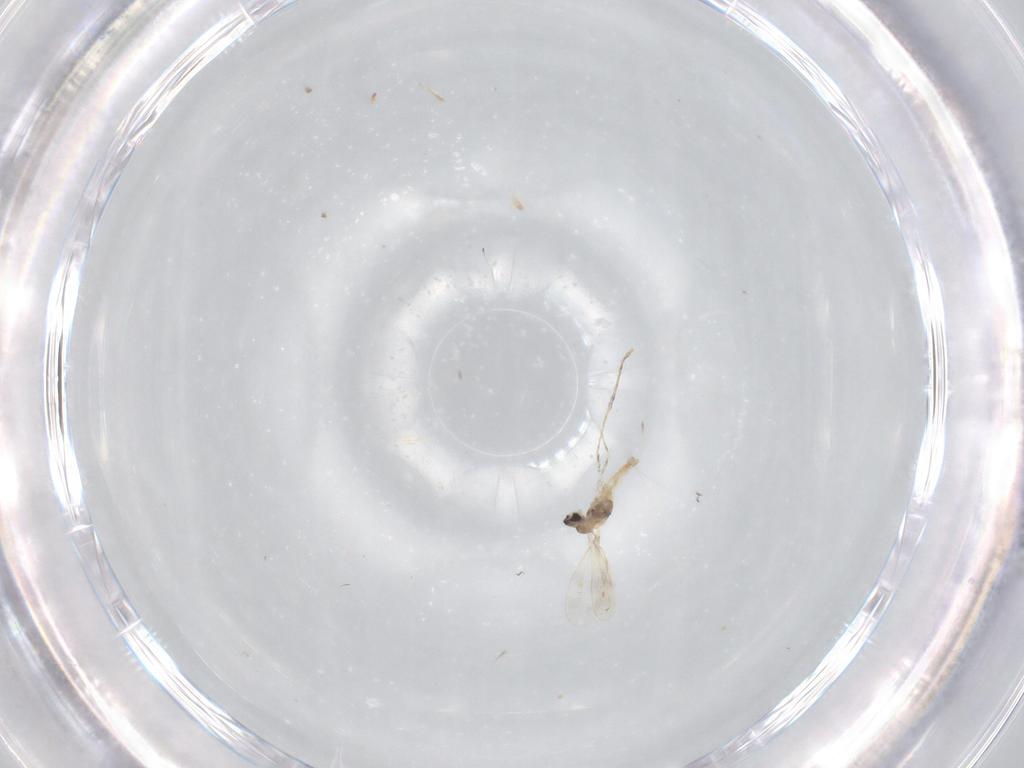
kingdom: Animalia
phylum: Arthropoda
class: Insecta
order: Diptera
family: Cecidomyiidae
